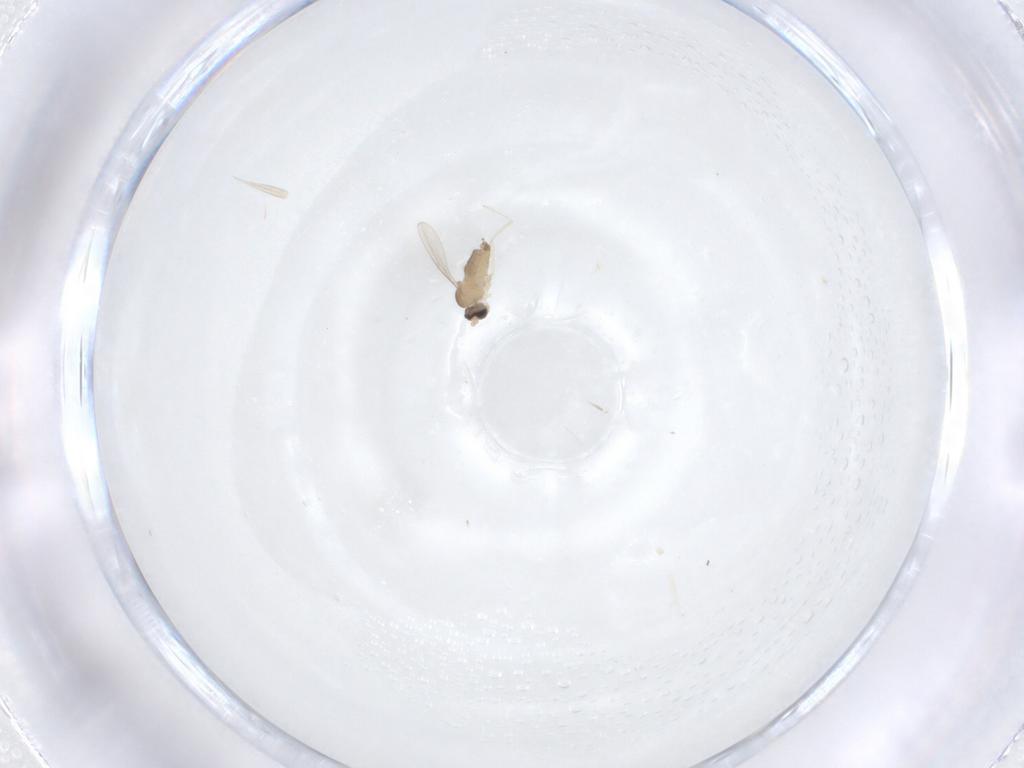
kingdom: Animalia
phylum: Arthropoda
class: Insecta
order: Diptera
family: Cecidomyiidae
